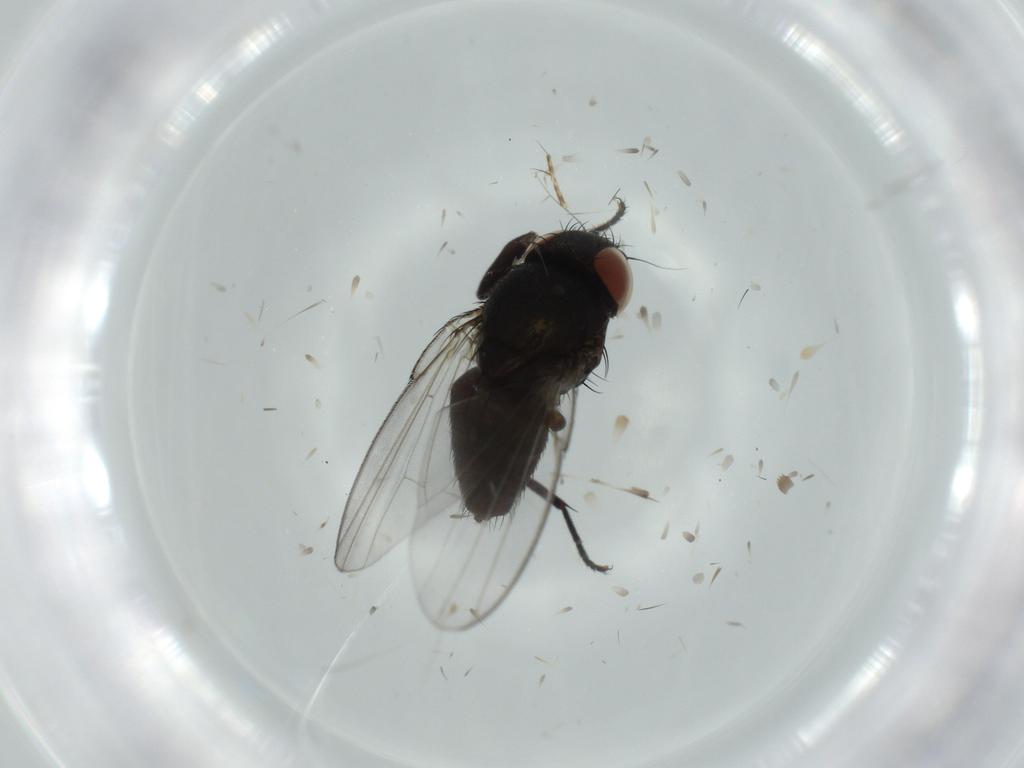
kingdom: Animalia
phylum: Arthropoda
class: Insecta
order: Diptera
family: Milichiidae
